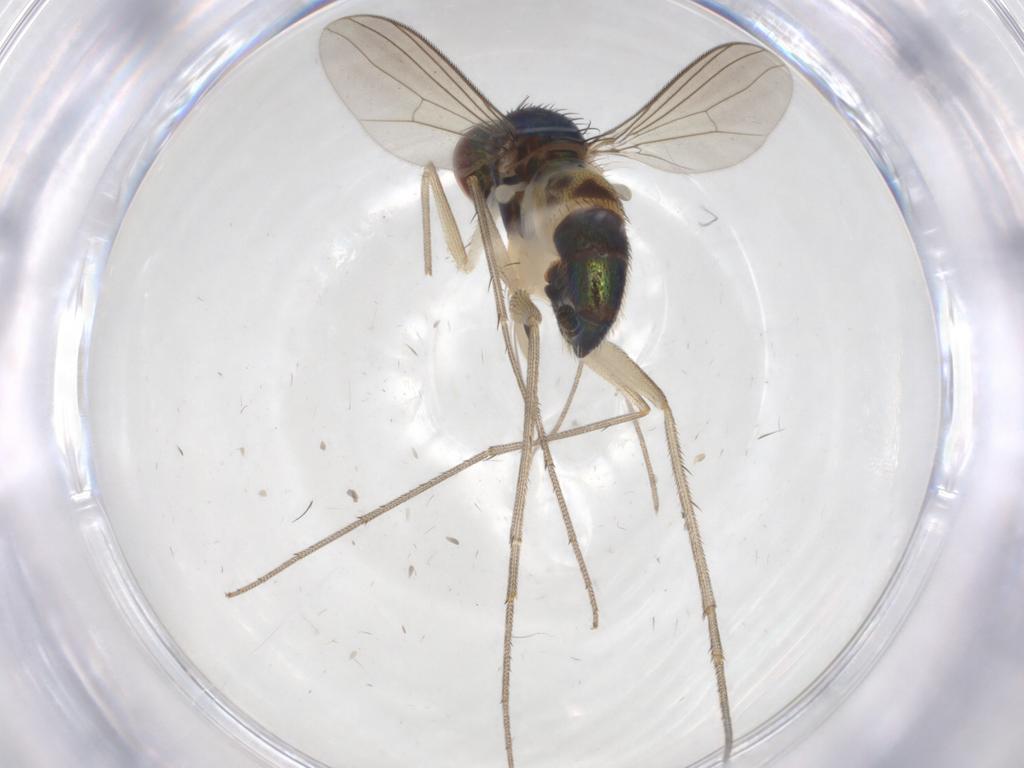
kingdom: Animalia
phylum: Arthropoda
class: Insecta
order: Diptera
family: Dolichopodidae
